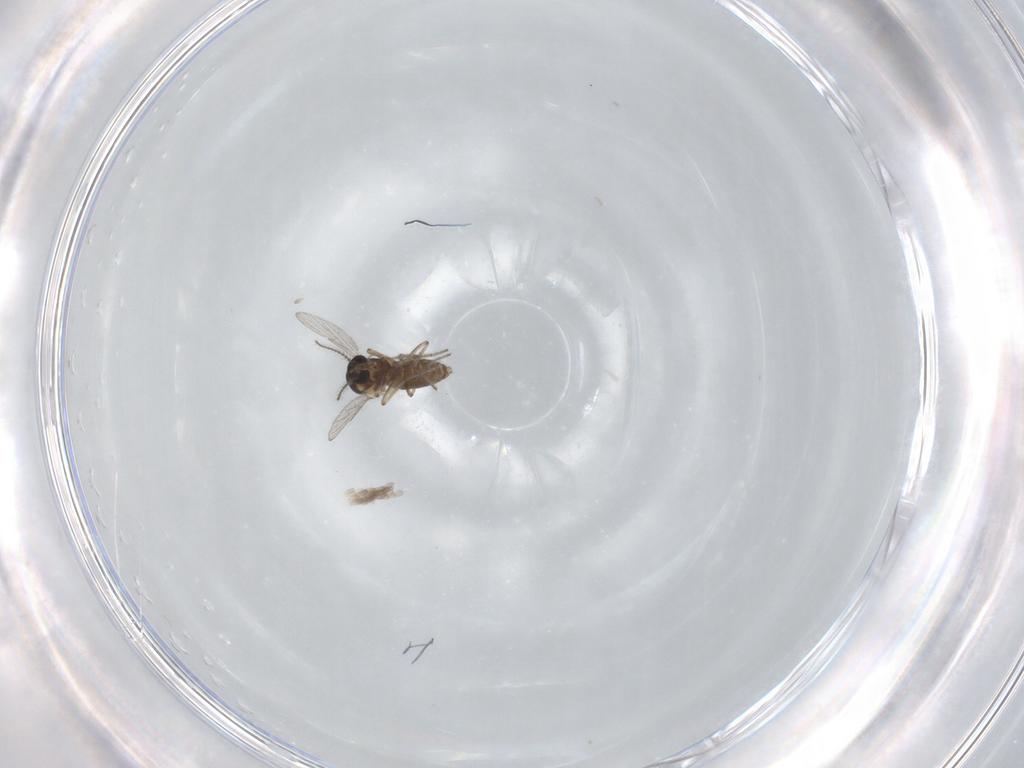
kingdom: Animalia
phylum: Arthropoda
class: Insecta
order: Diptera
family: Ceratopogonidae
